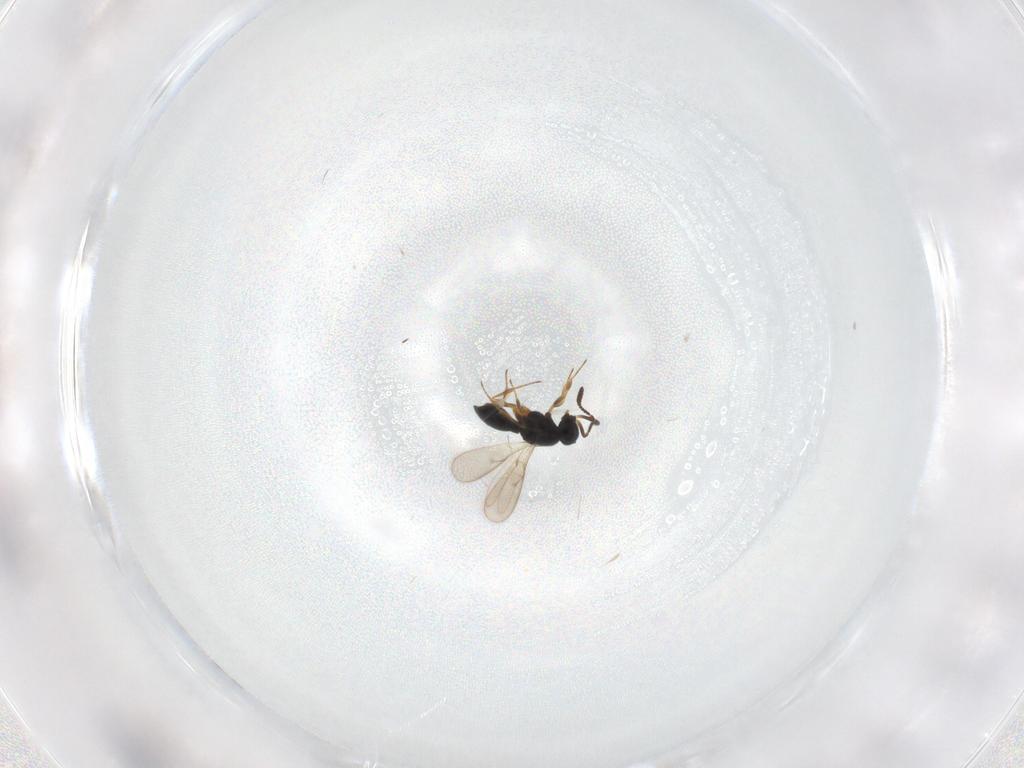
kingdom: Animalia
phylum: Arthropoda
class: Insecta
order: Hymenoptera
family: Scelionidae
